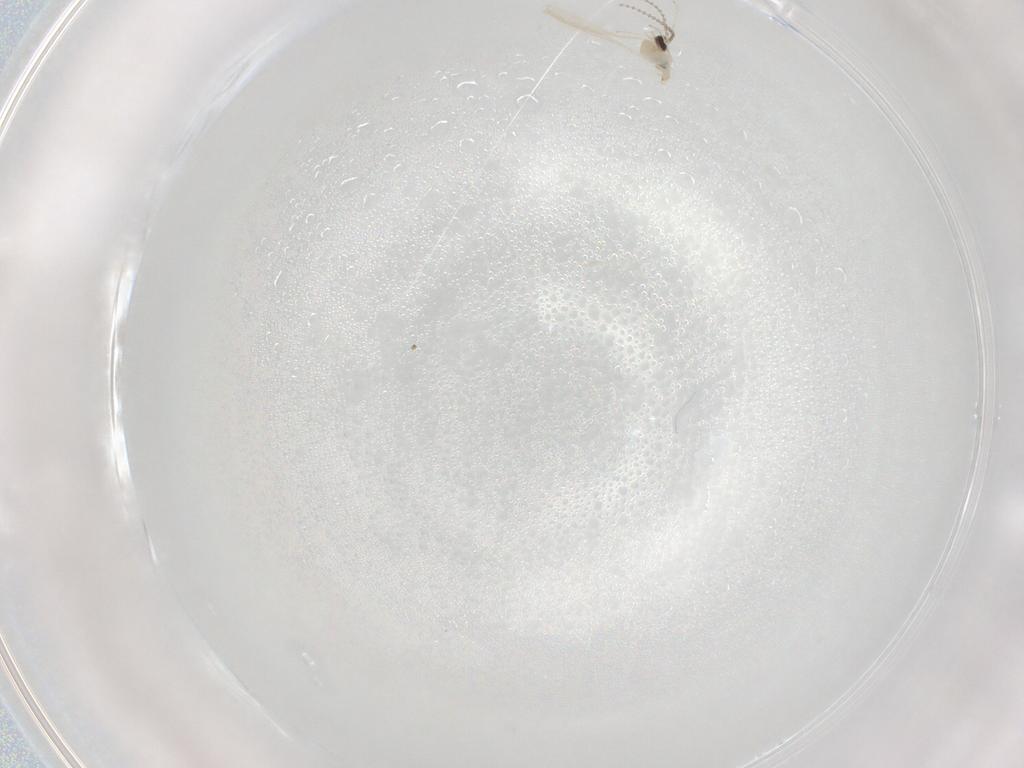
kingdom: Animalia
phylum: Arthropoda
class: Insecta
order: Diptera
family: Cecidomyiidae
